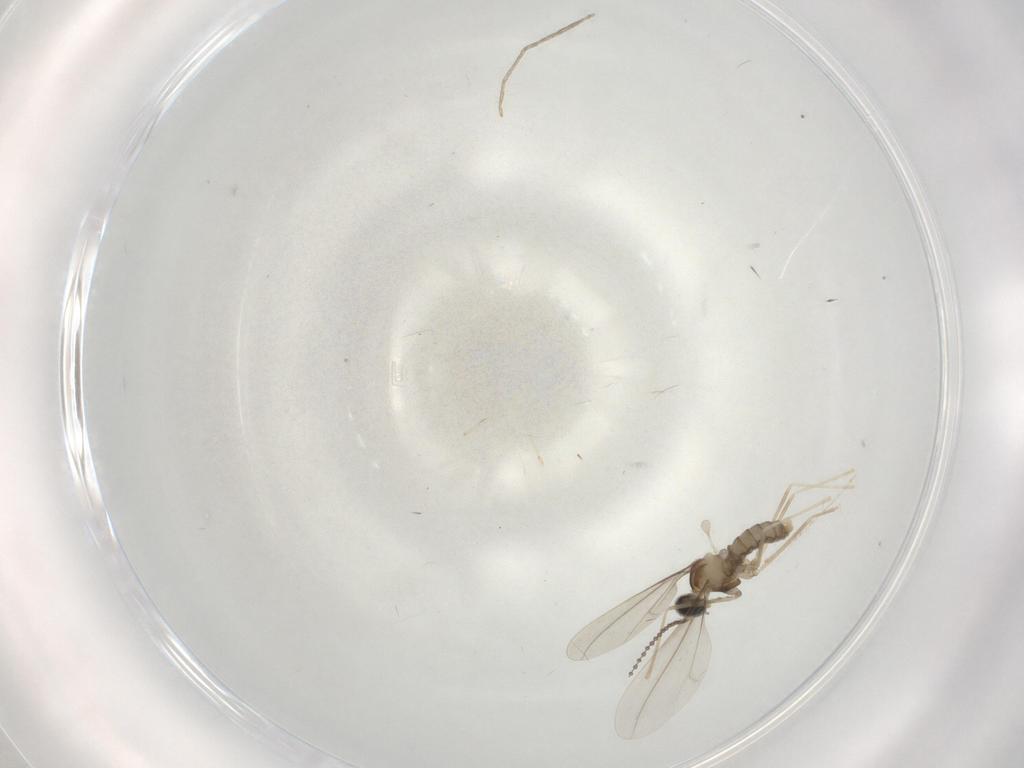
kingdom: Animalia
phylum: Arthropoda
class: Insecta
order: Diptera
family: Cecidomyiidae
